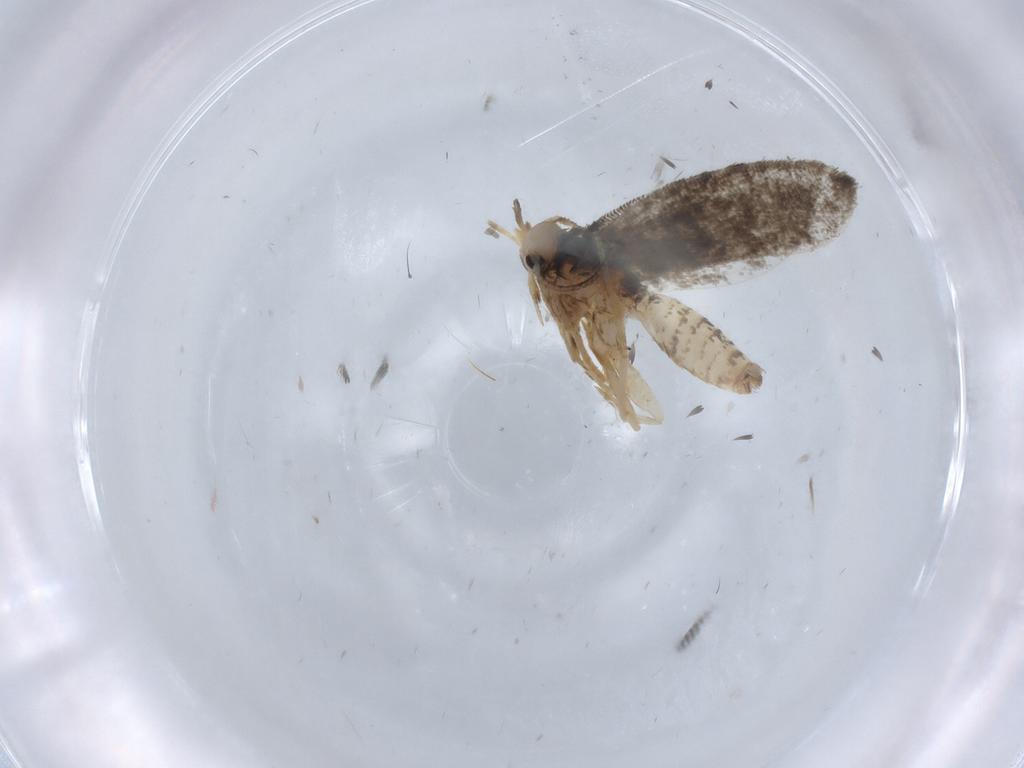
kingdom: Animalia
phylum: Arthropoda
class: Insecta
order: Lepidoptera
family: Psychidae
